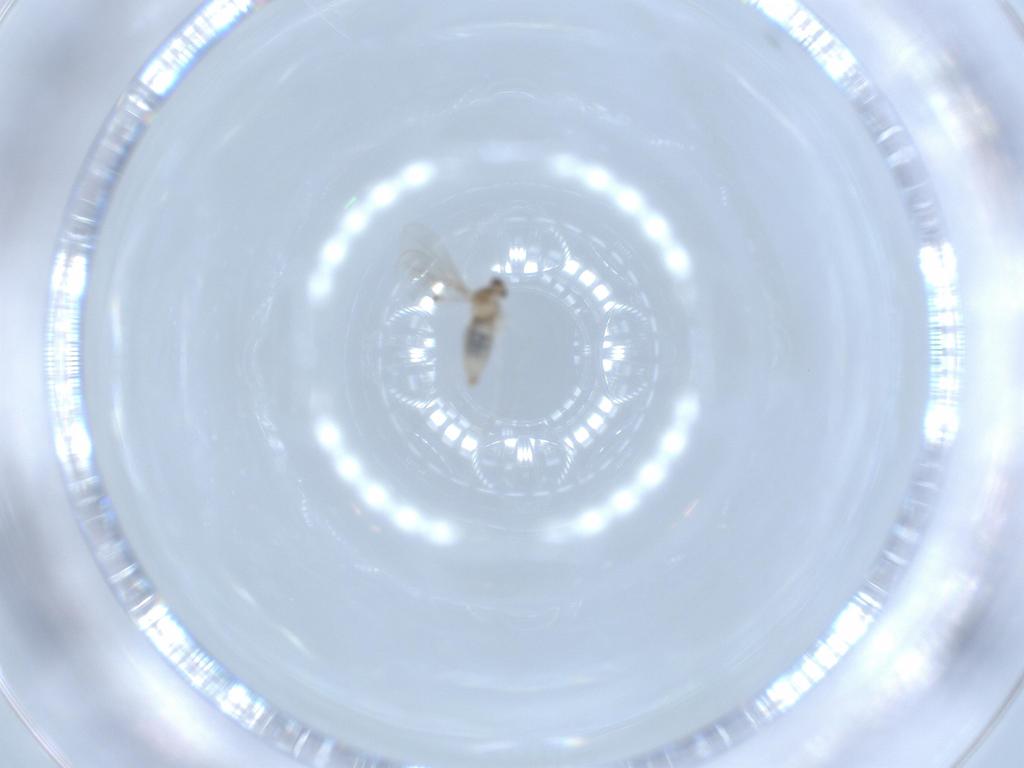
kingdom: Animalia
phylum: Arthropoda
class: Insecta
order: Diptera
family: Cecidomyiidae
